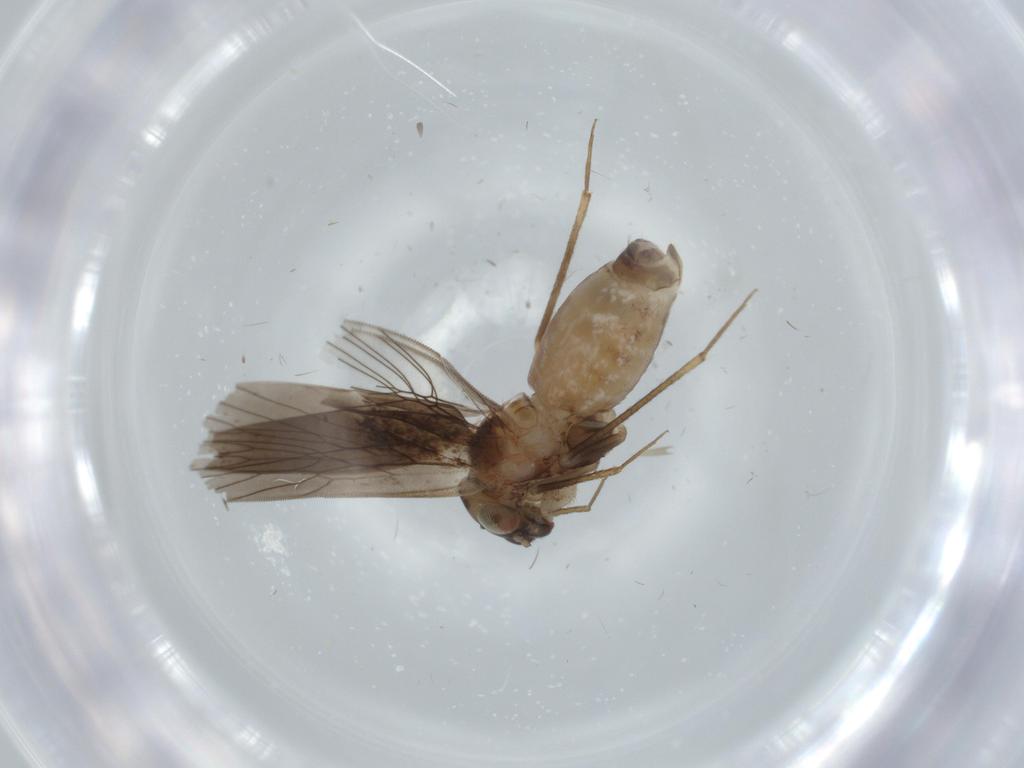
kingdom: Animalia
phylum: Arthropoda
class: Insecta
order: Psocodea
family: Lepidopsocidae
